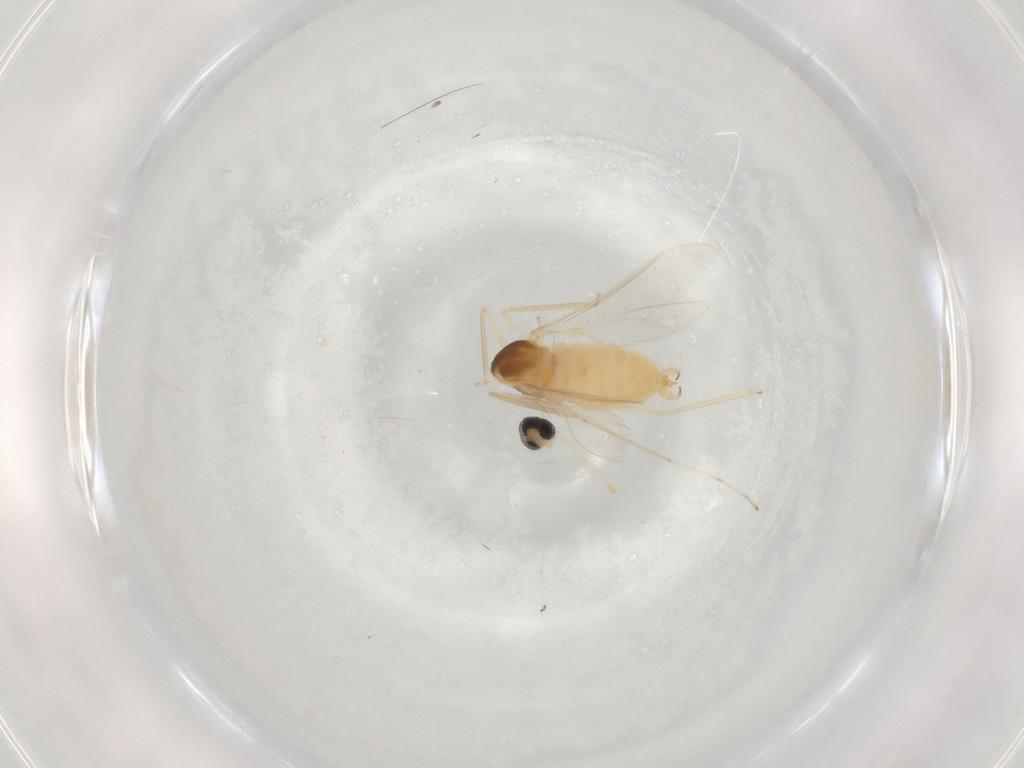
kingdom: Animalia
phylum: Arthropoda
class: Insecta
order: Diptera
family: Cecidomyiidae
